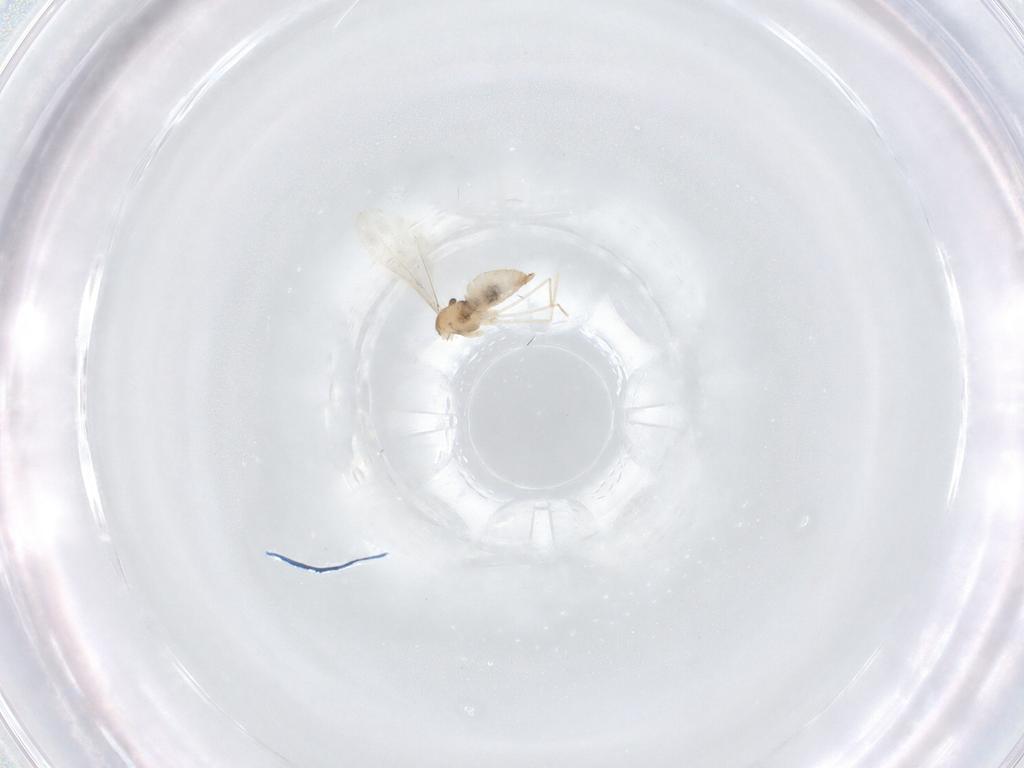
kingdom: Animalia
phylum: Arthropoda
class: Insecta
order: Diptera
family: Cecidomyiidae
